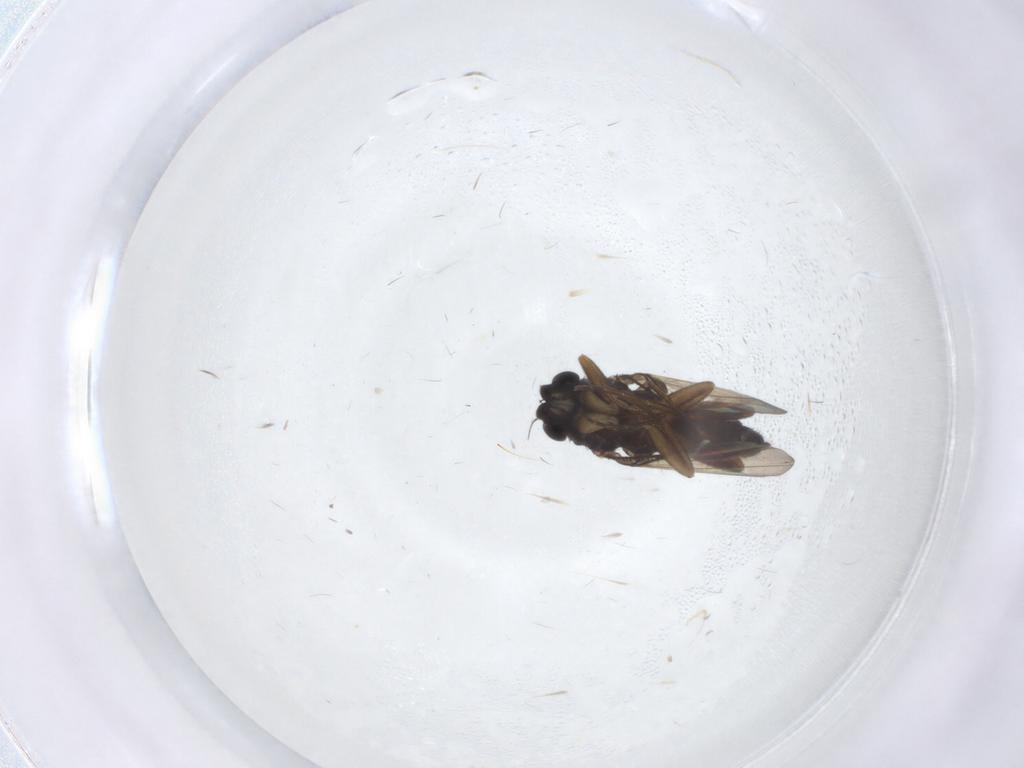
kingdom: Animalia
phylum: Arthropoda
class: Insecta
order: Diptera
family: Phoridae
